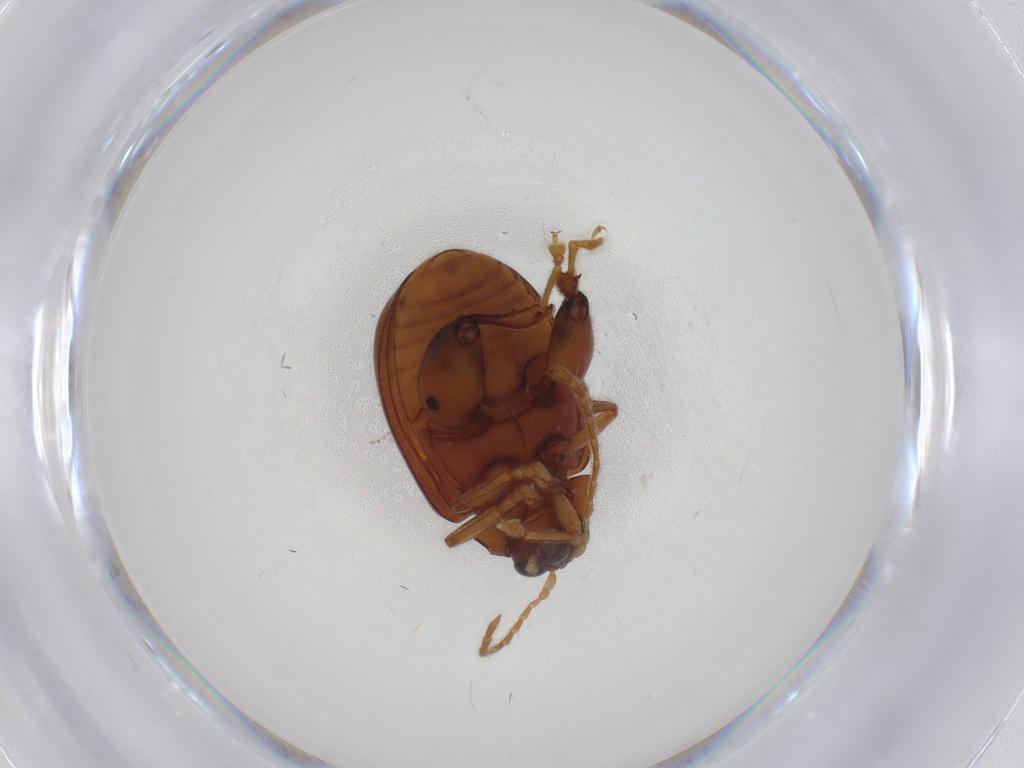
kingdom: Animalia
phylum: Arthropoda
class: Insecta
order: Coleoptera
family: Chrysomelidae
